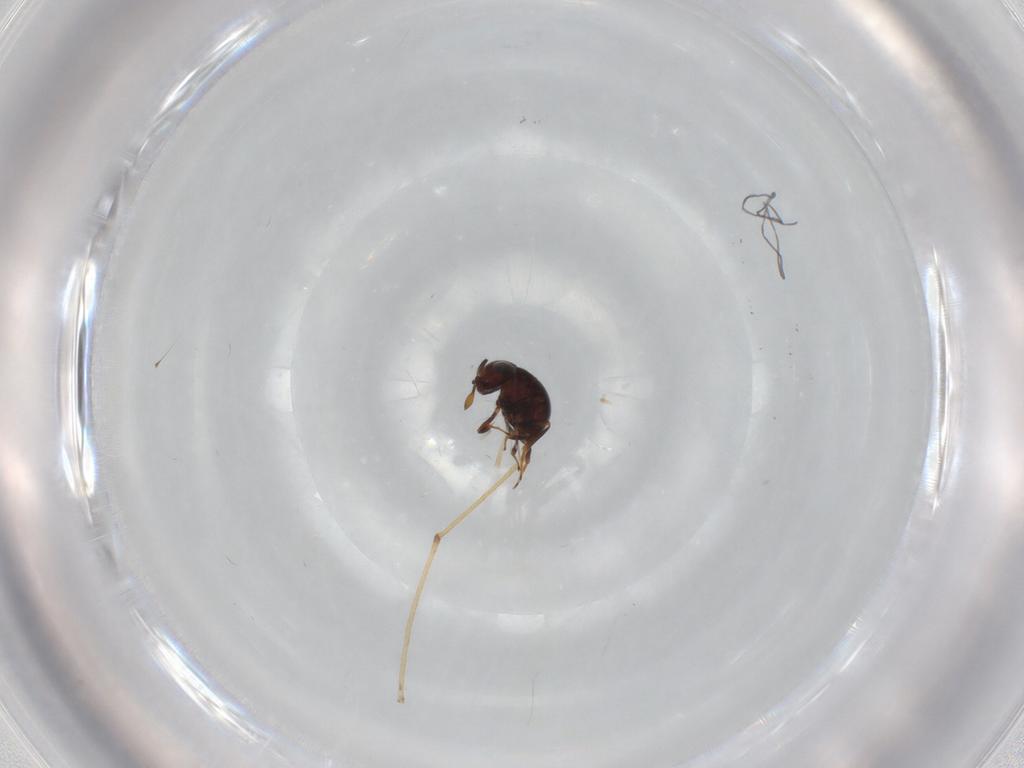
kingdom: Animalia
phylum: Arthropoda
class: Insecta
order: Hymenoptera
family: Scelionidae
